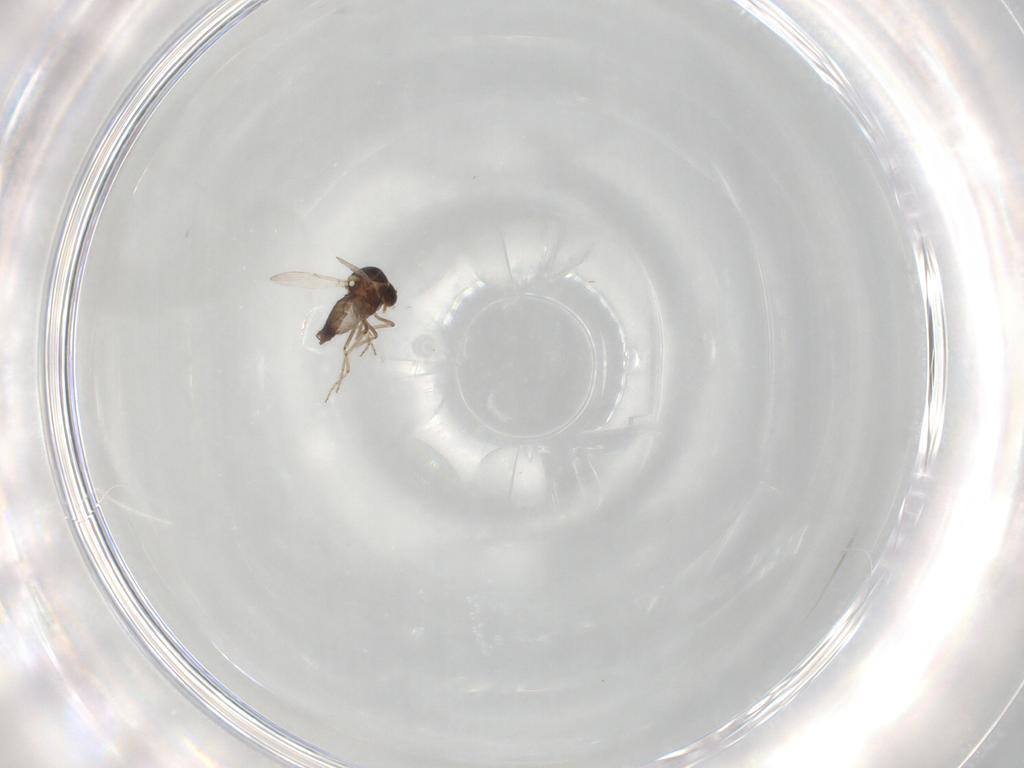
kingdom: Animalia
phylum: Arthropoda
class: Insecta
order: Diptera
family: Ceratopogonidae
